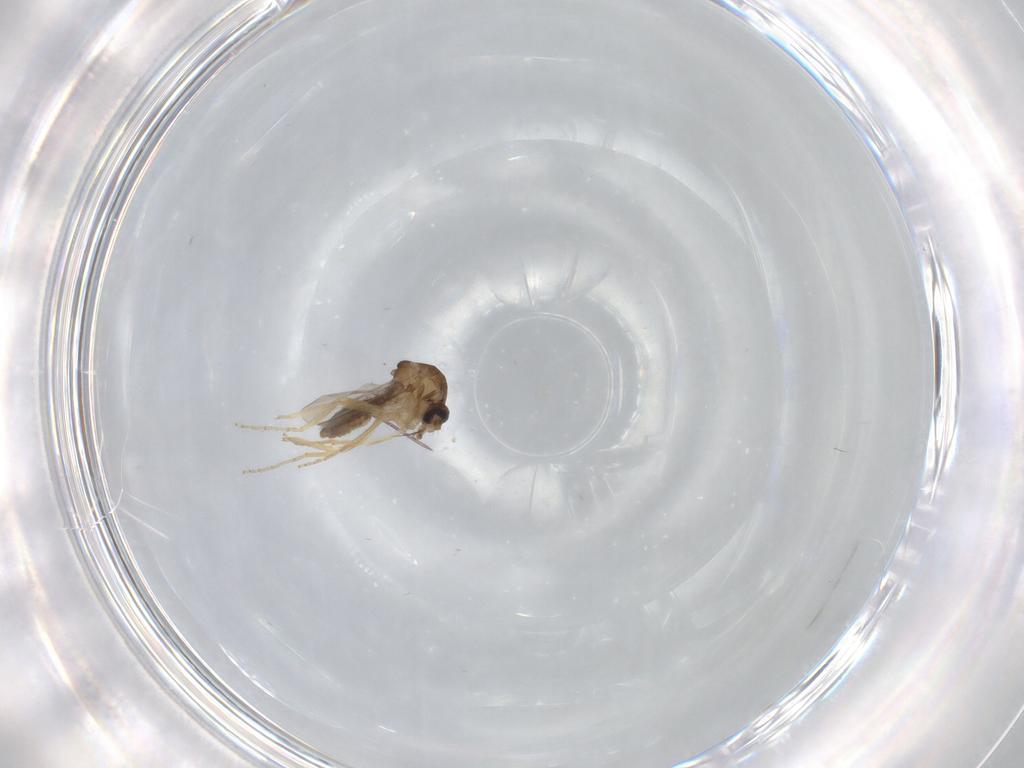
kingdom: Animalia
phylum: Arthropoda
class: Insecta
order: Diptera
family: Ceratopogonidae
